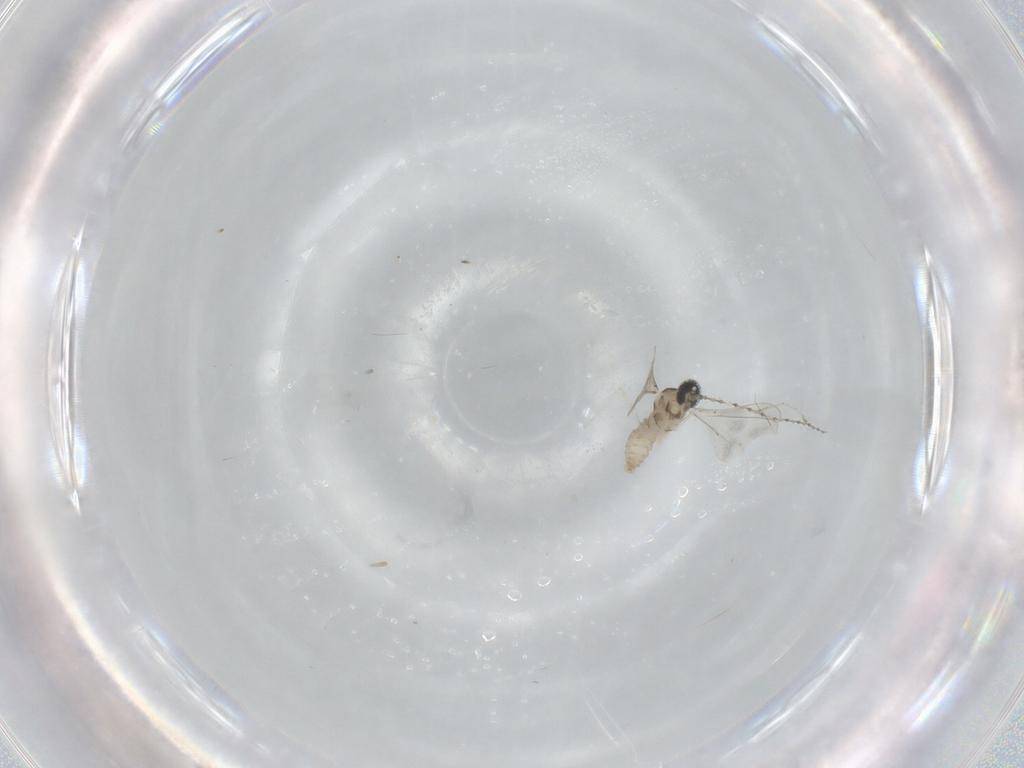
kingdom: Animalia
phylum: Arthropoda
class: Insecta
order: Diptera
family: Cecidomyiidae
